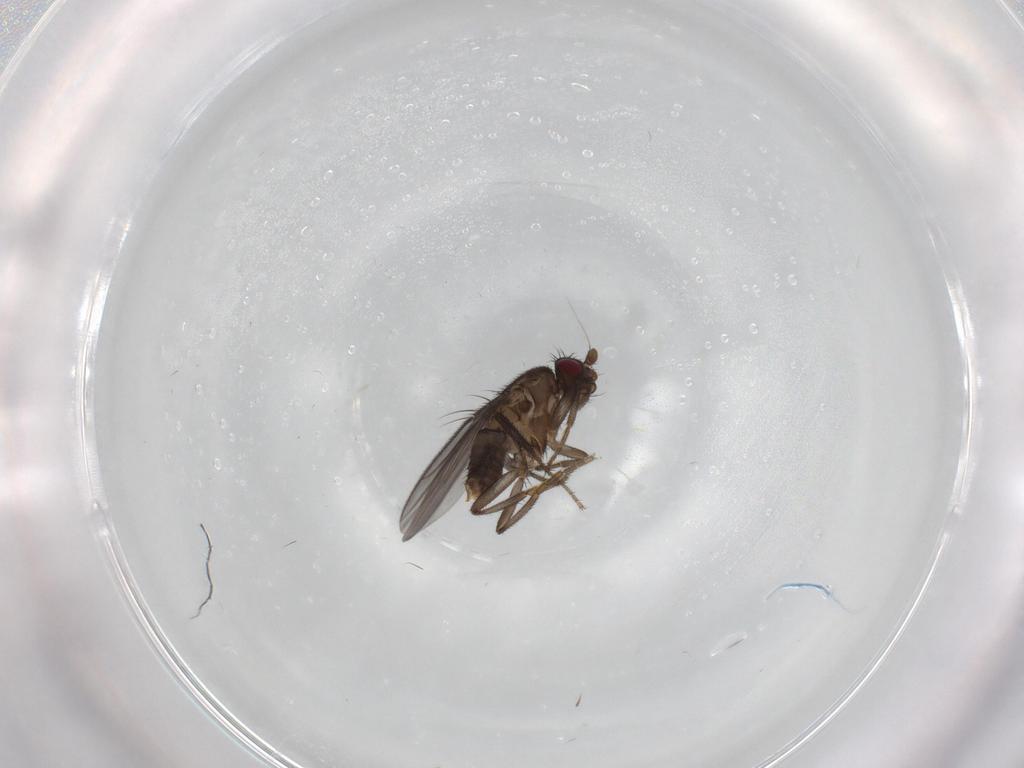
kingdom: Animalia
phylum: Arthropoda
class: Insecta
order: Diptera
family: Sphaeroceridae
